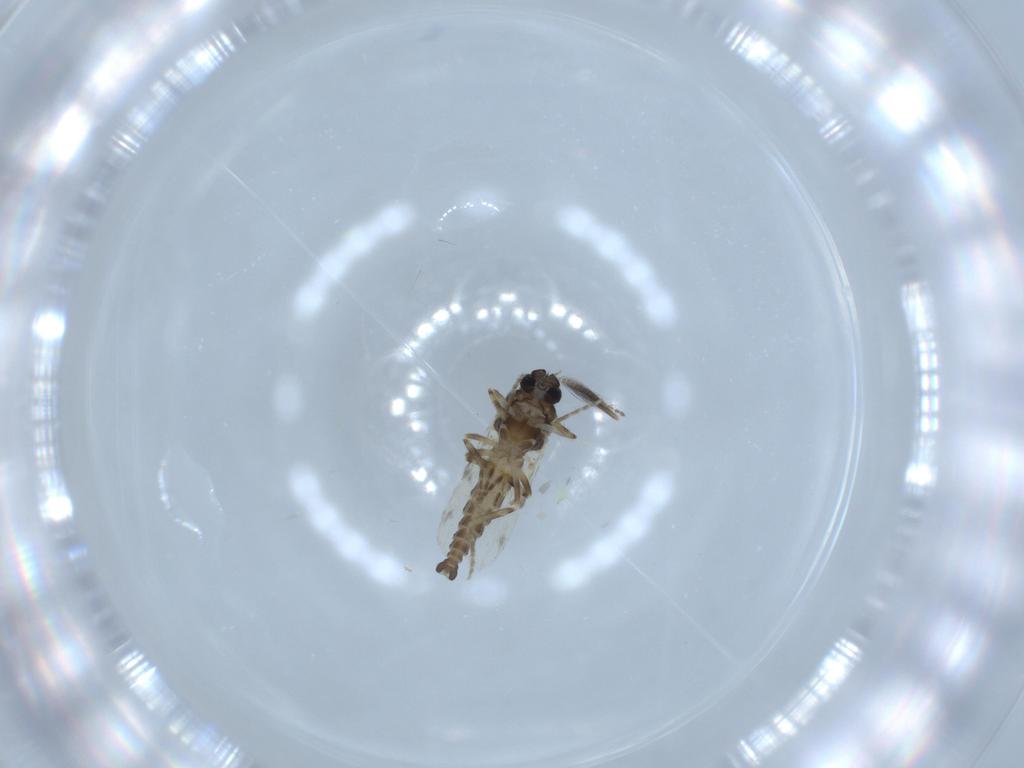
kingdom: Animalia
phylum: Arthropoda
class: Insecta
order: Diptera
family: Ceratopogonidae
